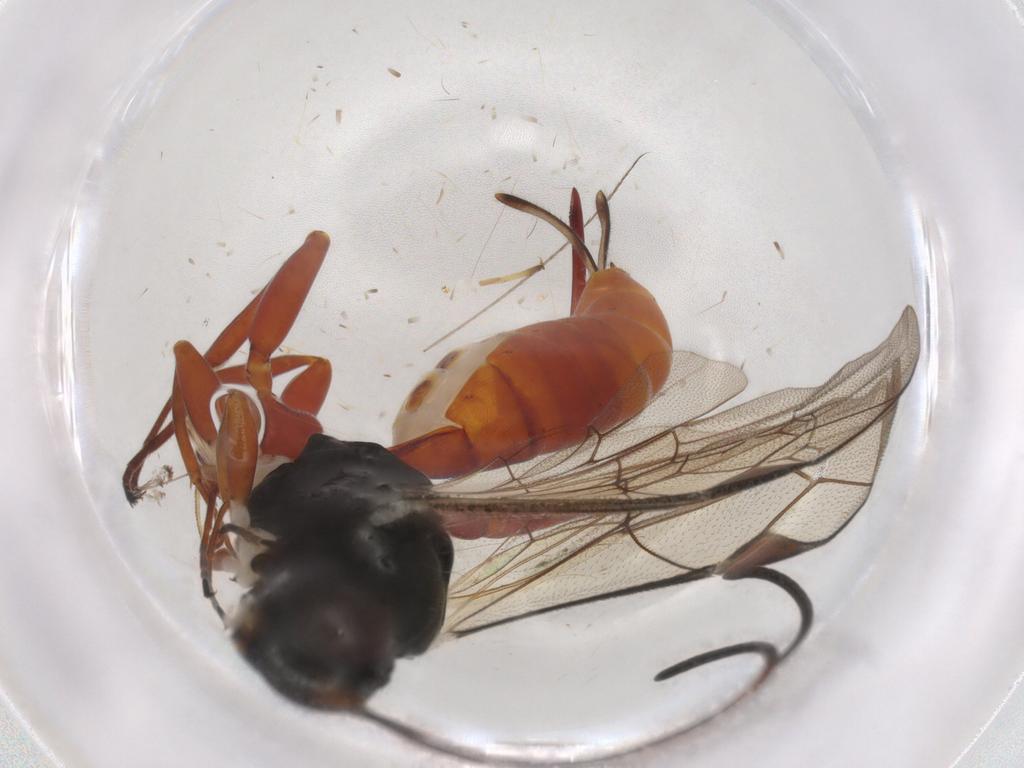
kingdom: Animalia
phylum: Arthropoda
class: Insecta
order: Hymenoptera
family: Ichneumonidae
